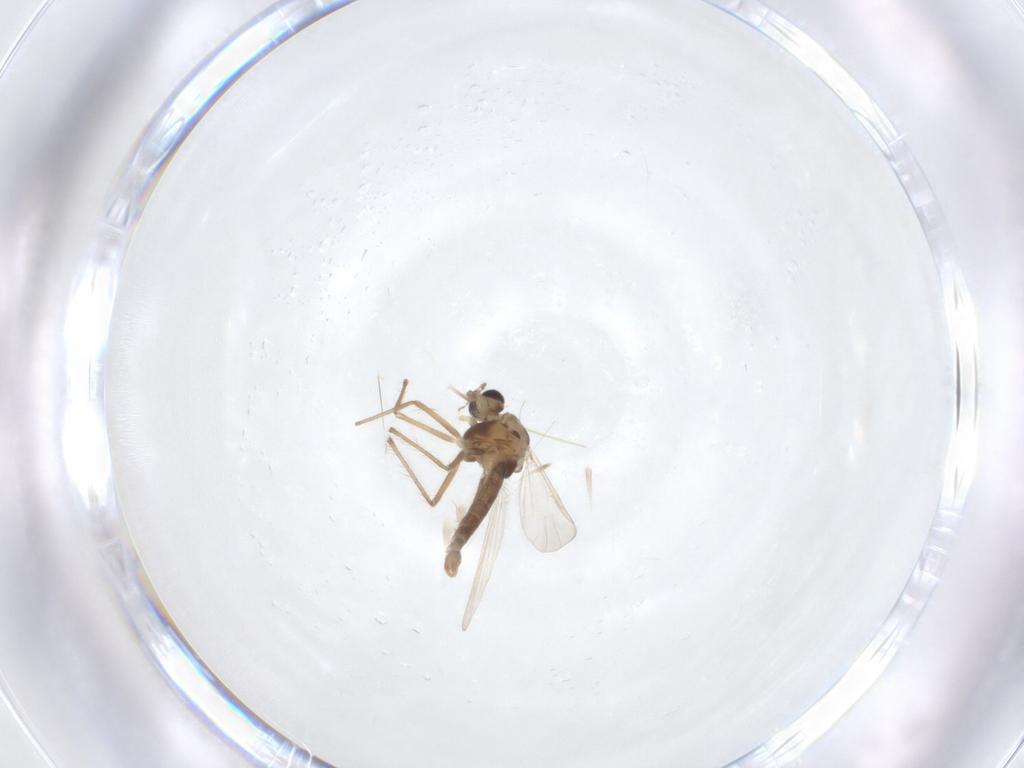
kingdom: Animalia
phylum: Arthropoda
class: Insecta
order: Diptera
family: Chironomidae
